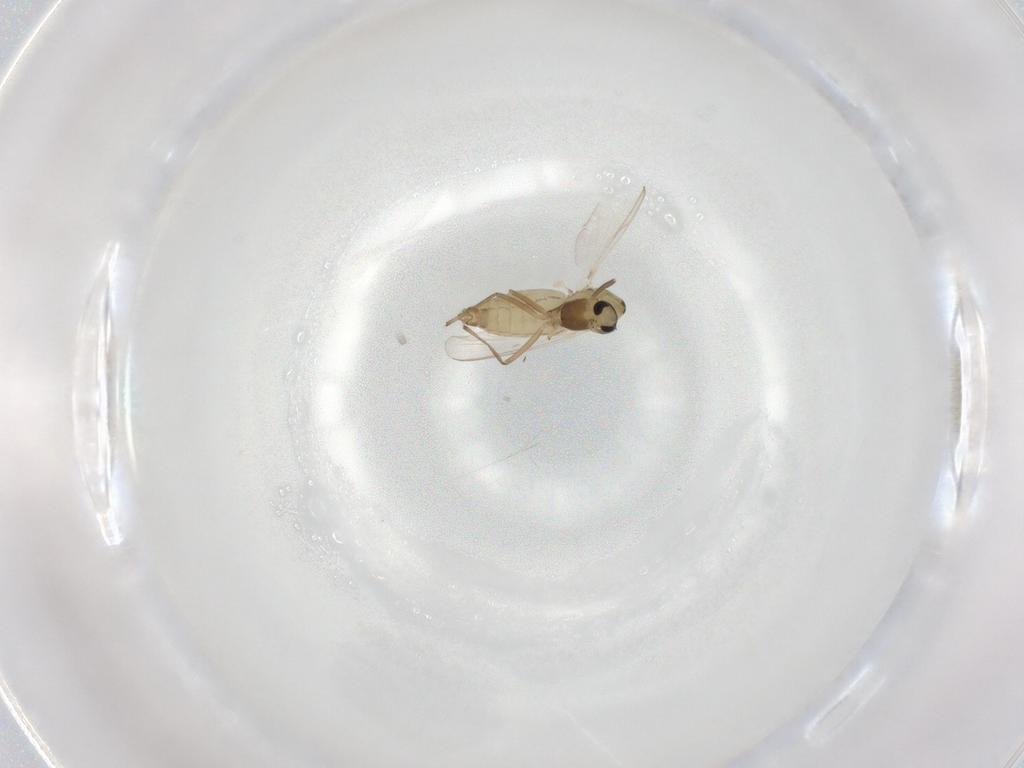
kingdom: Animalia
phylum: Arthropoda
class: Insecta
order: Diptera
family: Chironomidae
